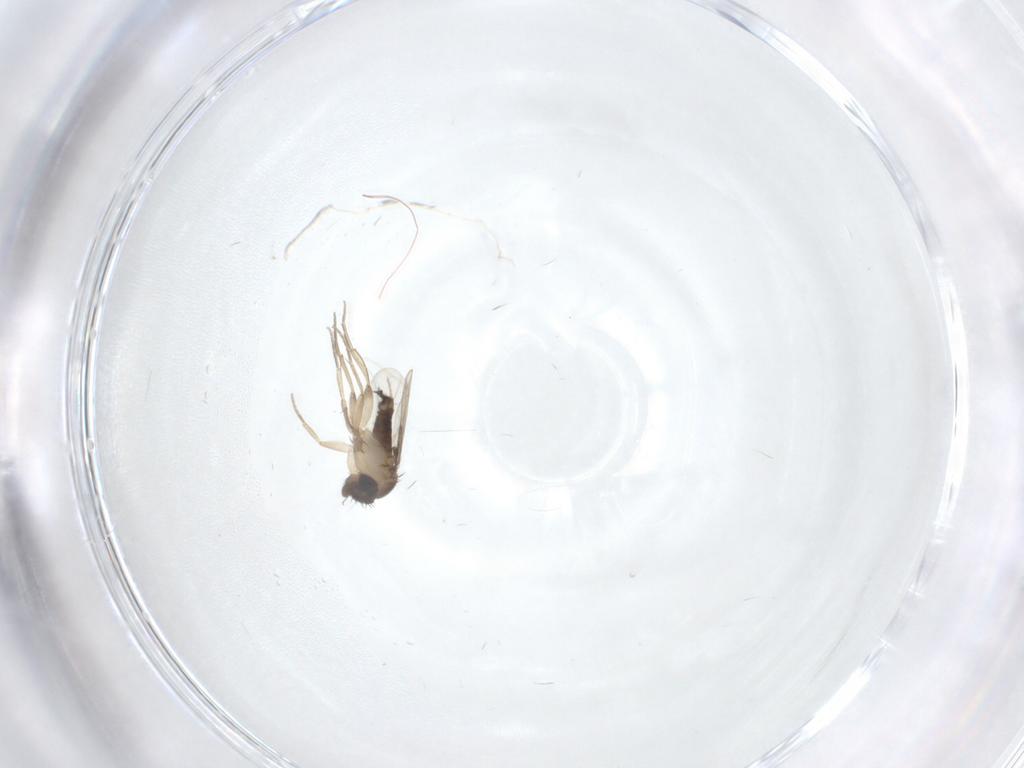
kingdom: Animalia
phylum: Arthropoda
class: Insecta
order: Diptera
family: Phoridae
